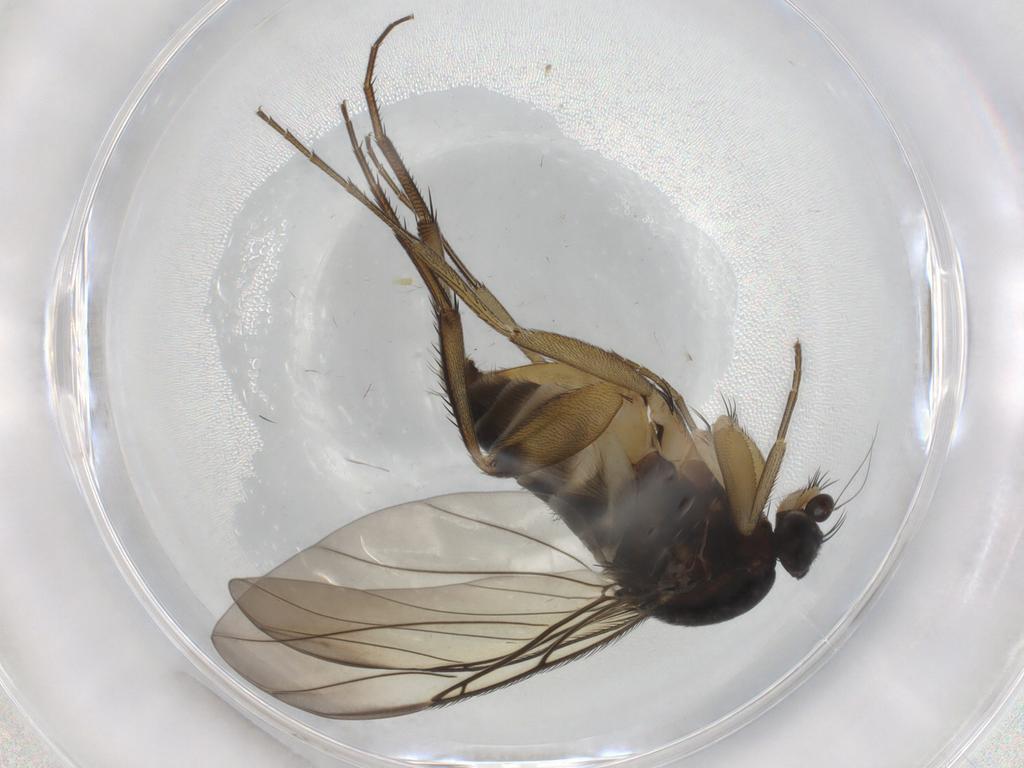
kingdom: Animalia
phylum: Arthropoda
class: Insecta
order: Diptera
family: Phoridae
